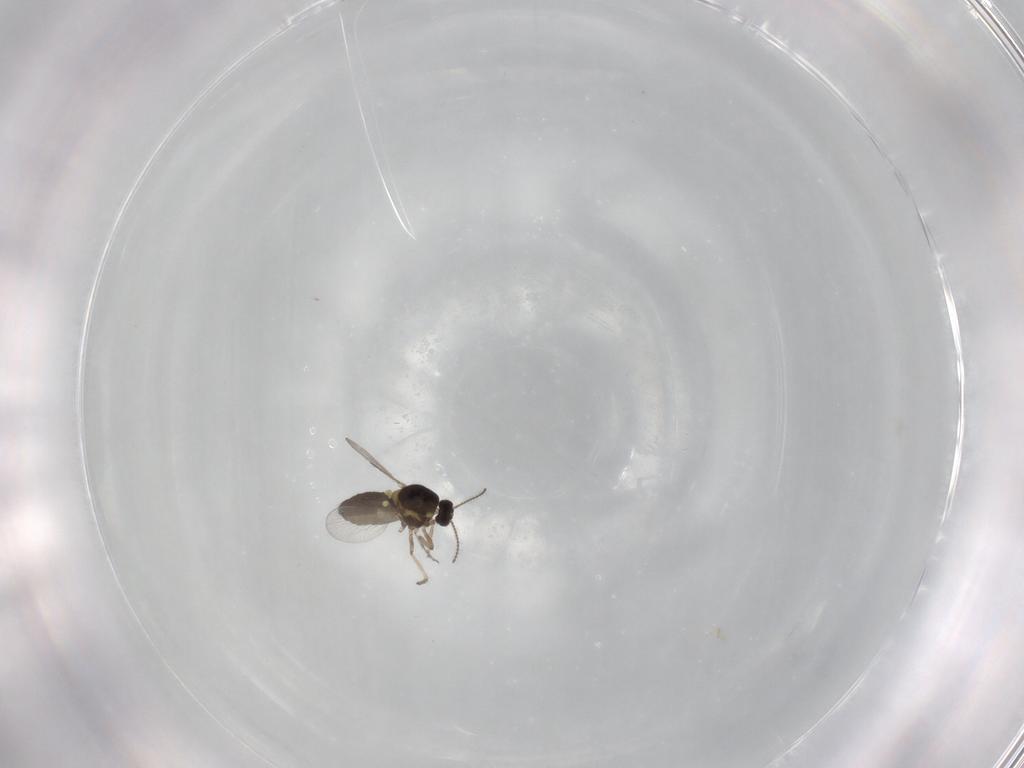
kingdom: Animalia
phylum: Arthropoda
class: Insecta
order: Diptera
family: Ceratopogonidae
